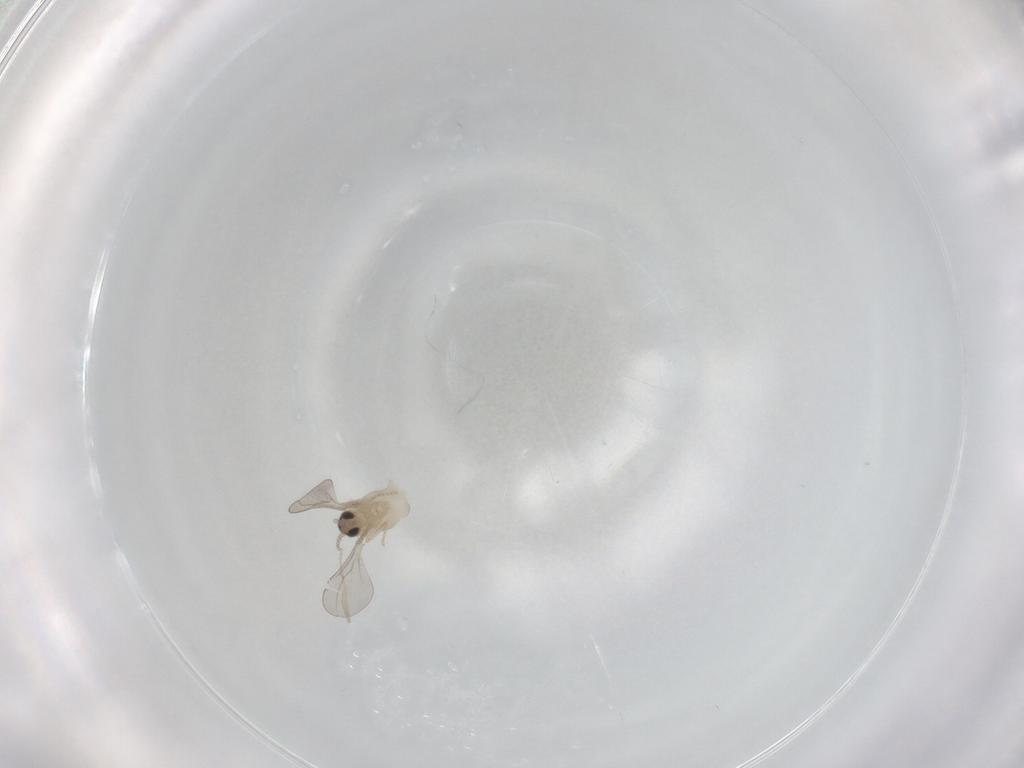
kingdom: Animalia
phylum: Arthropoda
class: Insecta
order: Diptera
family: Cecidomyiidae
